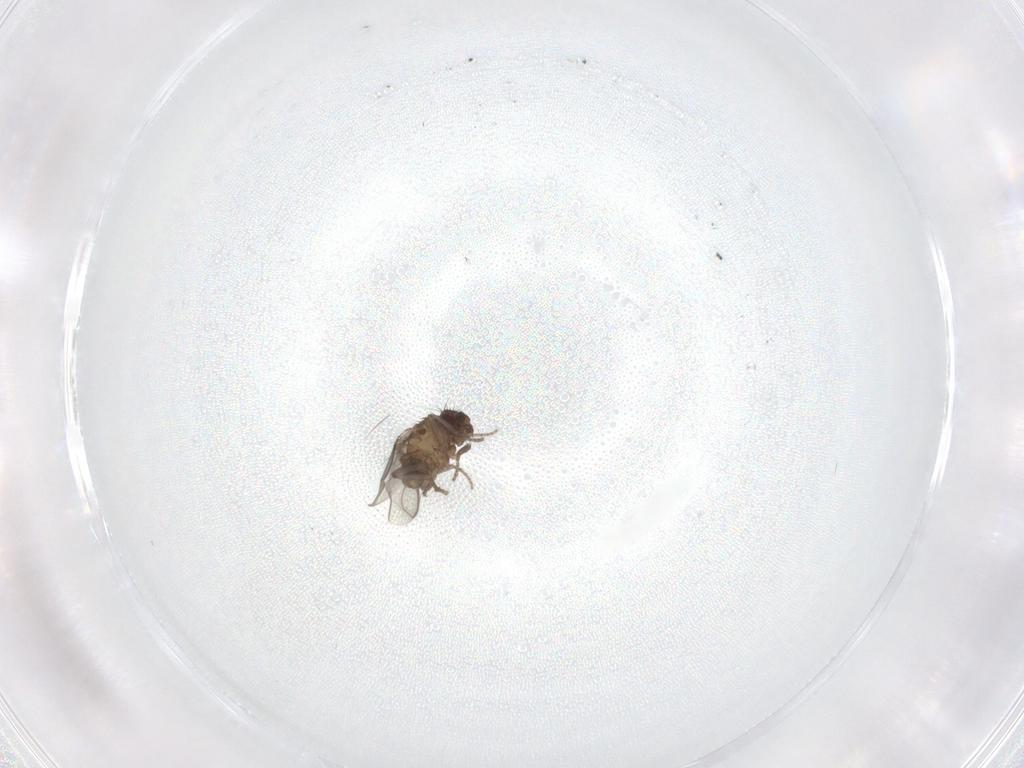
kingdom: Animalia
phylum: Arthropoda
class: Insecta
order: Diptera
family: Sphaeroceridae
